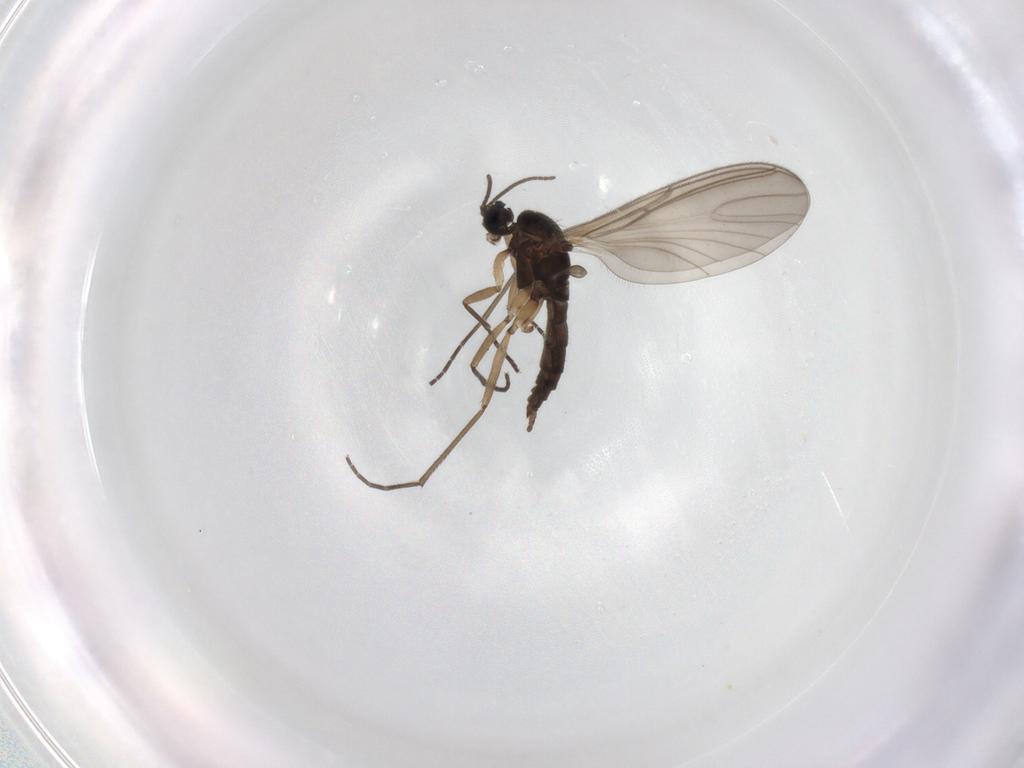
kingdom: Animalia
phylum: Arthropoda
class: Insecta
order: Diptera
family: Sciaridae
